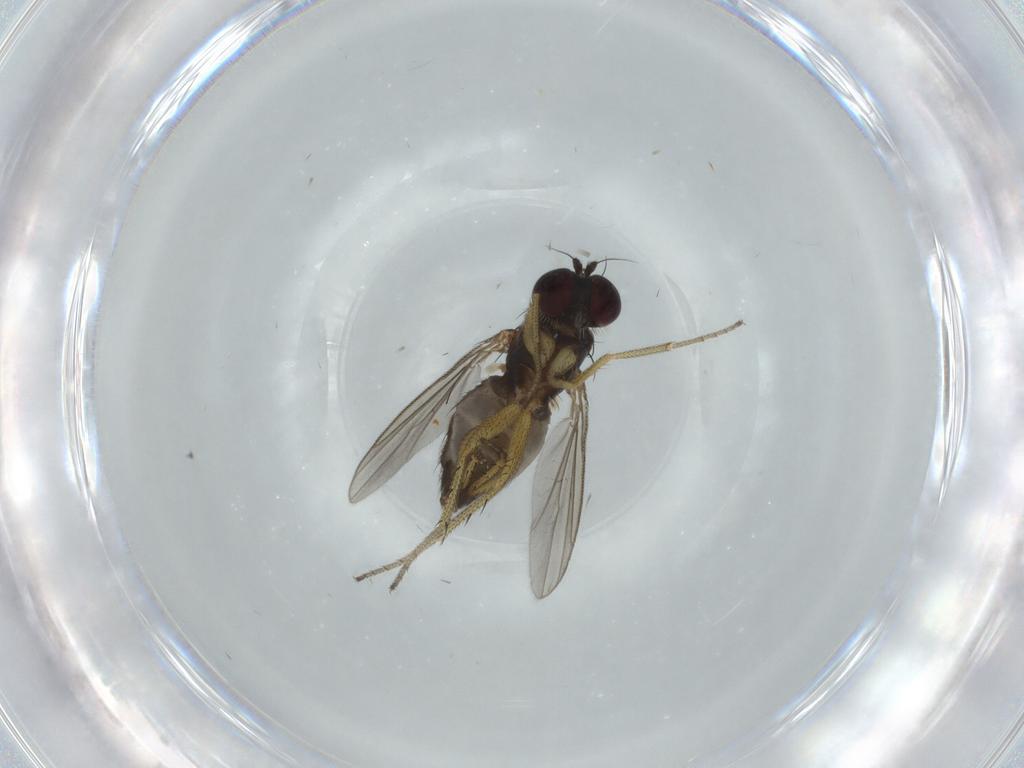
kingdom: Animalia
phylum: Arthropoda
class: Insecta
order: Diptera
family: Dolichopodidae
